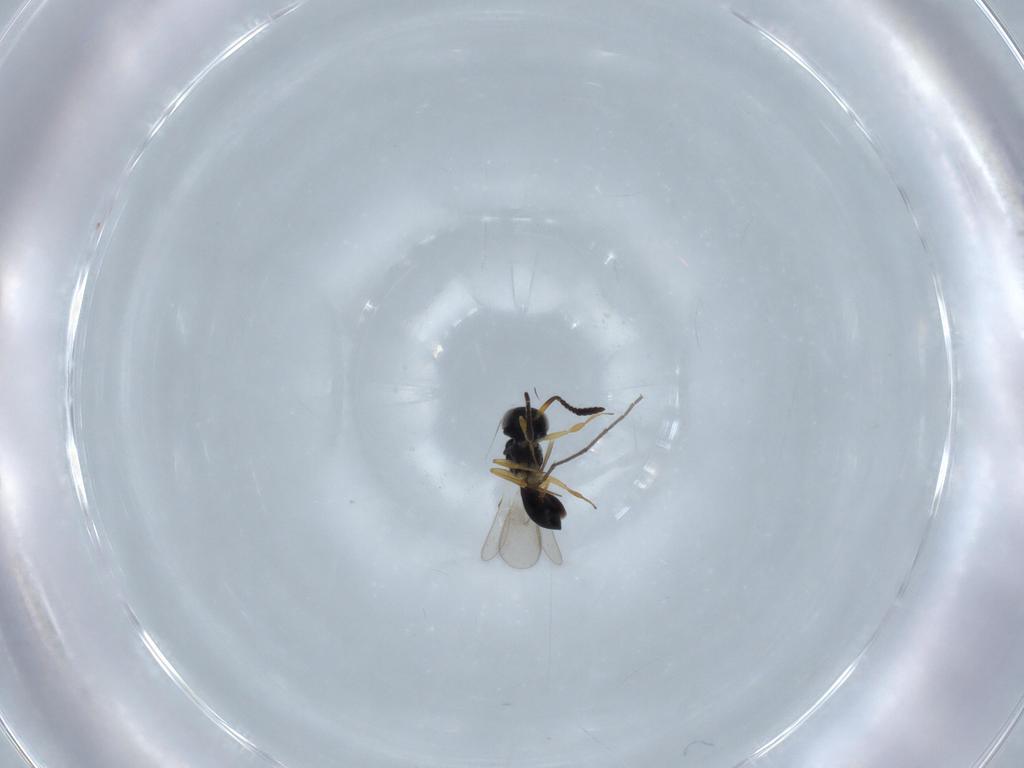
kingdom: Animalia
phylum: Arthropoda
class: Insecta
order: Hymenoptera
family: Scelionidae
